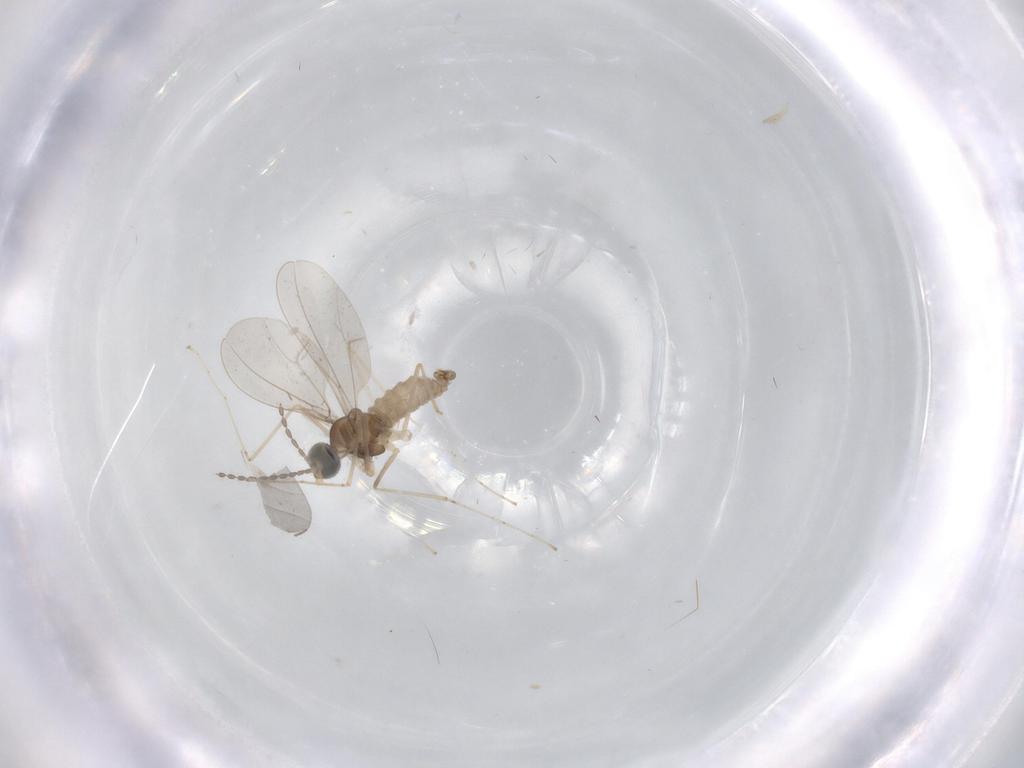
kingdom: Animalia
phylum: Arthropoda
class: Insecta
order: Diptera
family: Cecidomyiidae
